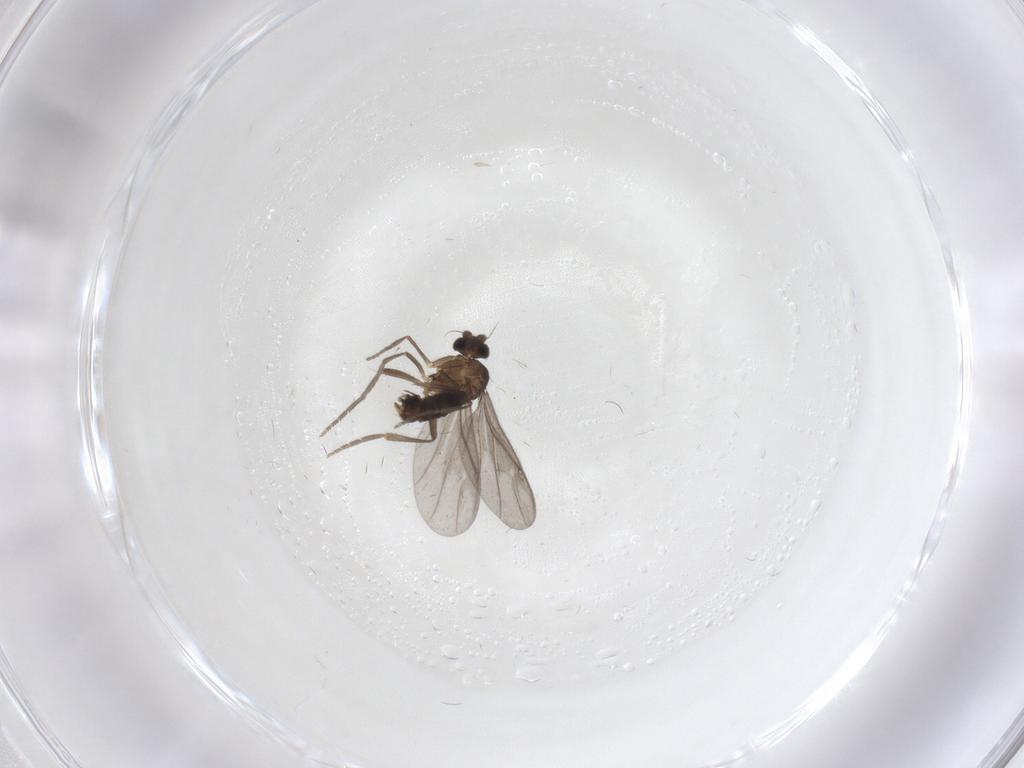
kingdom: Animalia
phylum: Arthropoda
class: Insecta
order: Diptera
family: Phoridae
